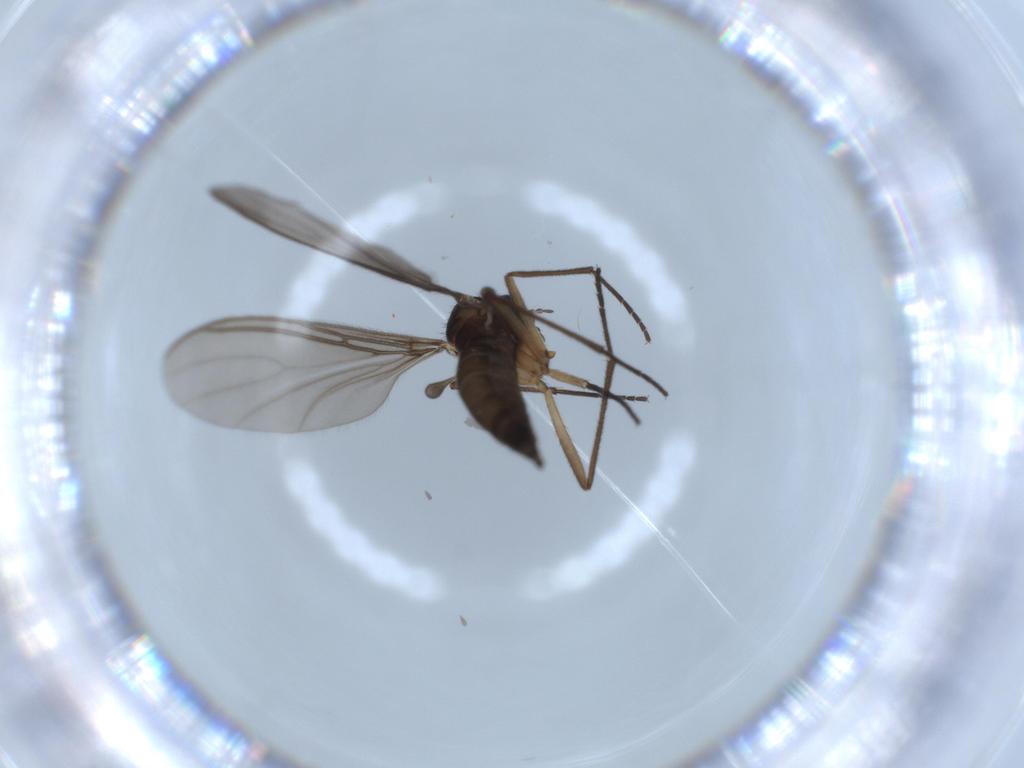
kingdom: Animalia
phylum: Arthropoda
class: Insecta
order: Diptera
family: Sciaridae
